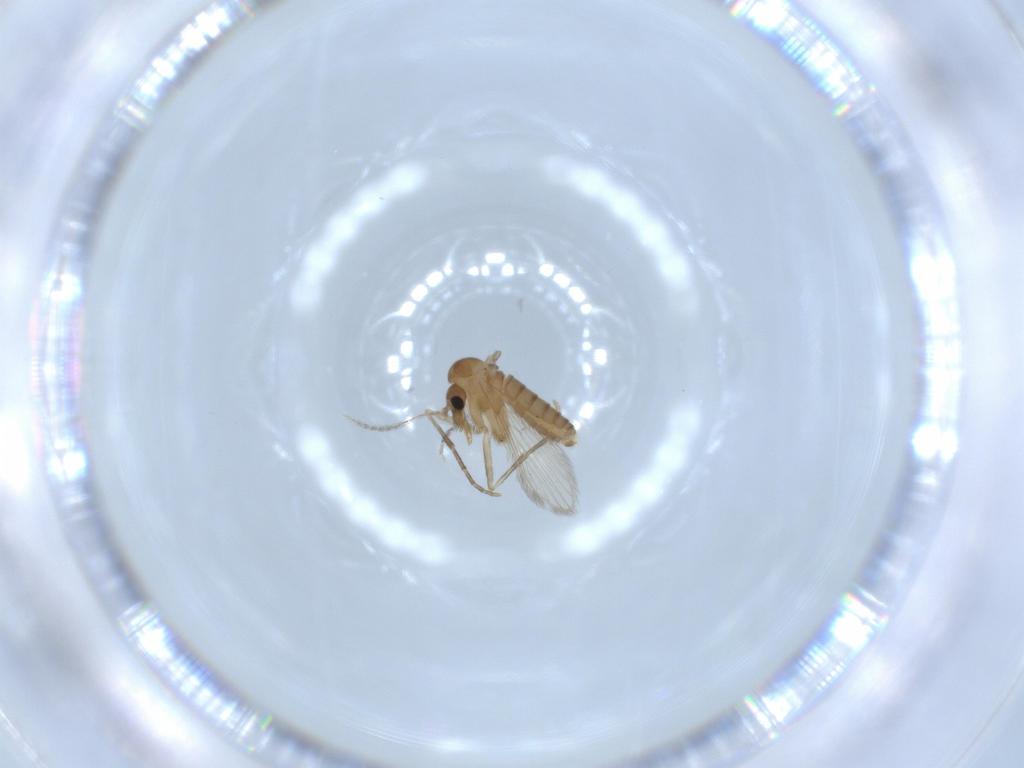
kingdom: Animalia
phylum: Arthropoda
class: Insecta
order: Diptera
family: Psychodidae
